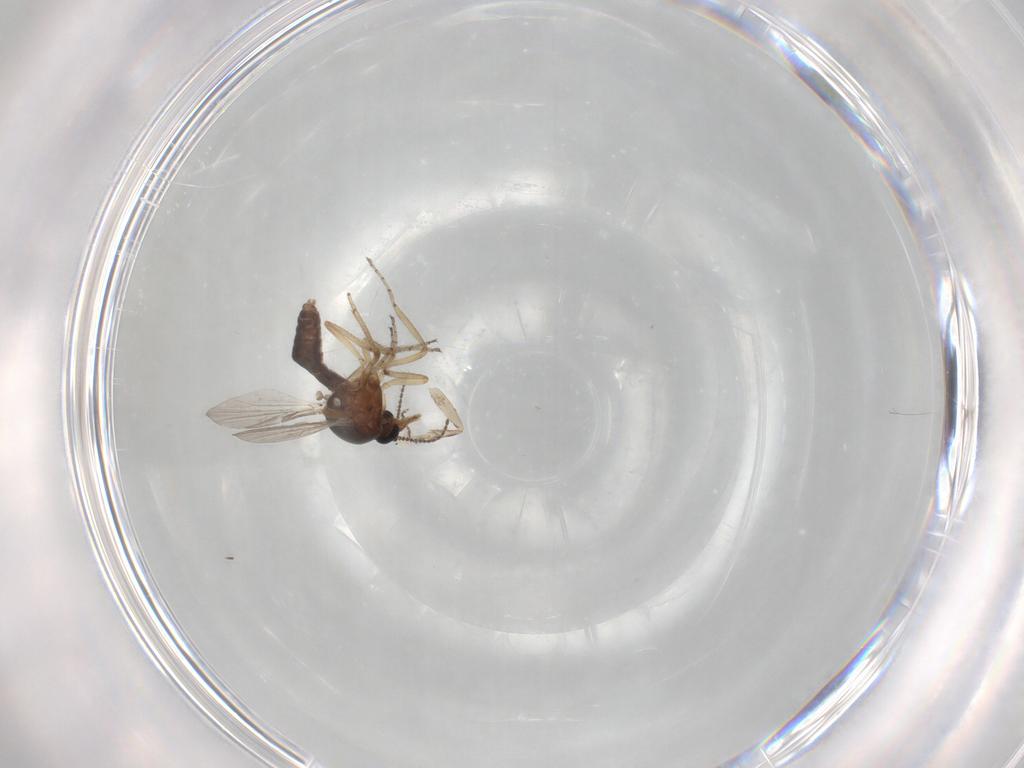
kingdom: Animalia
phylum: Arthropoda
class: Insecta
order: Diptera
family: Ceratopogonidae
